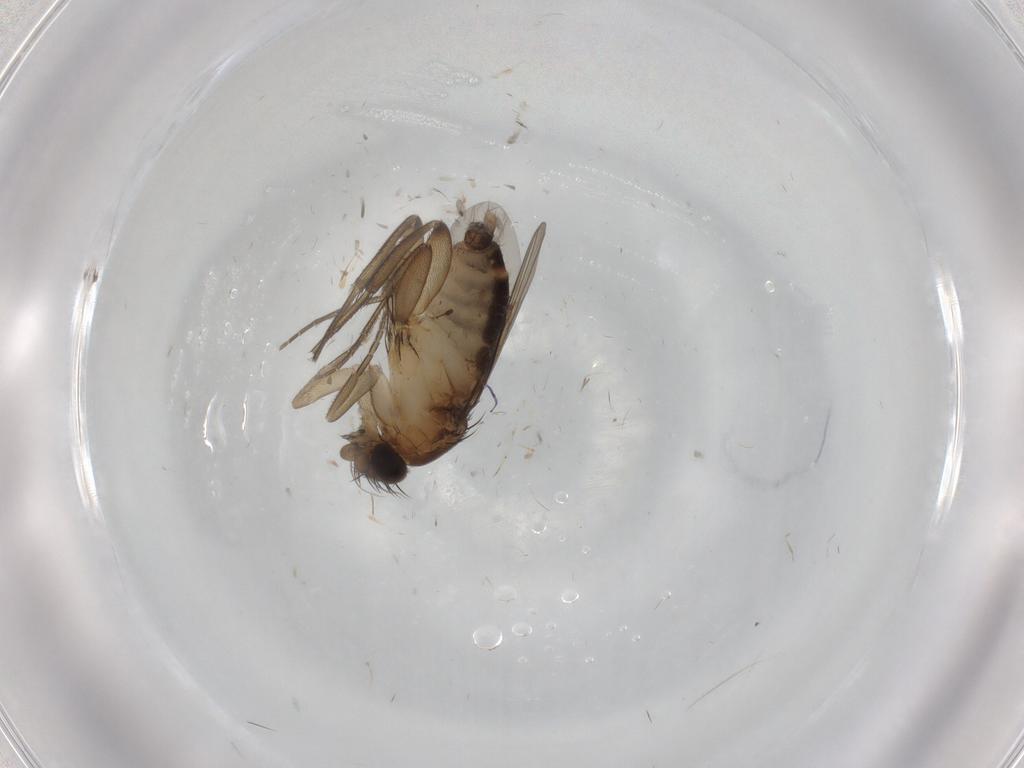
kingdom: Animalia
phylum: Arthropoda
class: Insecta
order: Diptera
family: Phoridae
